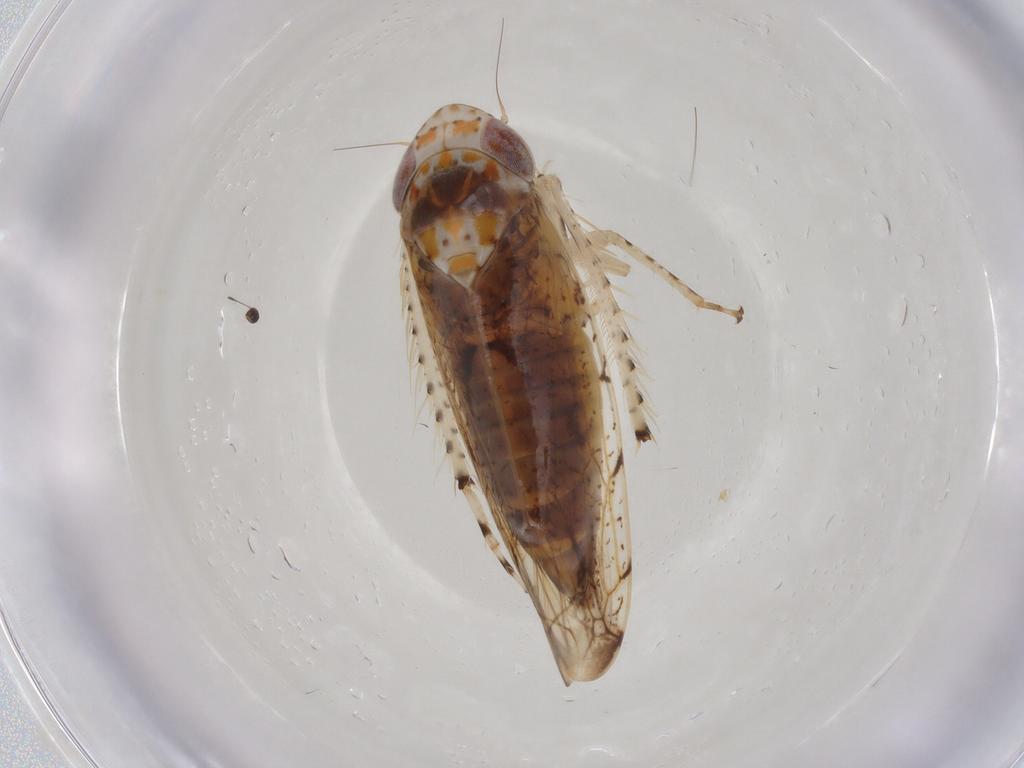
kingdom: Animalia
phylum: Arthropoda
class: Insecta
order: Hemiptera
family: Cicadellidae
